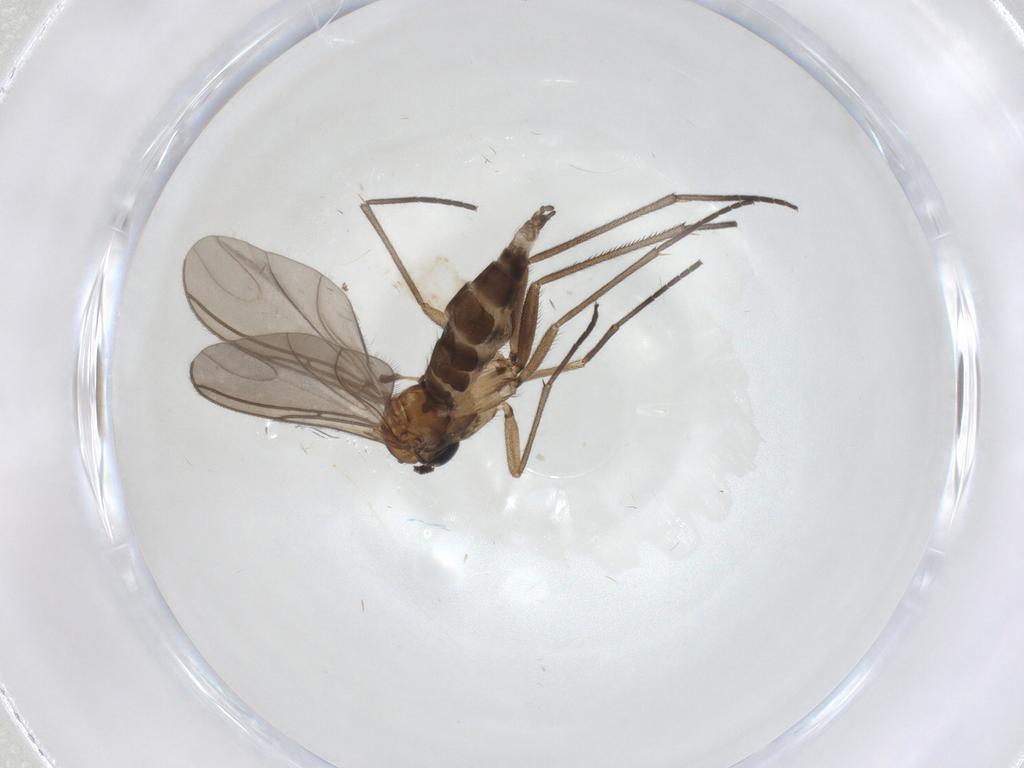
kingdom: Animalia
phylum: Arthropoda
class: Insecta
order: Diptera
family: Sciaridae
